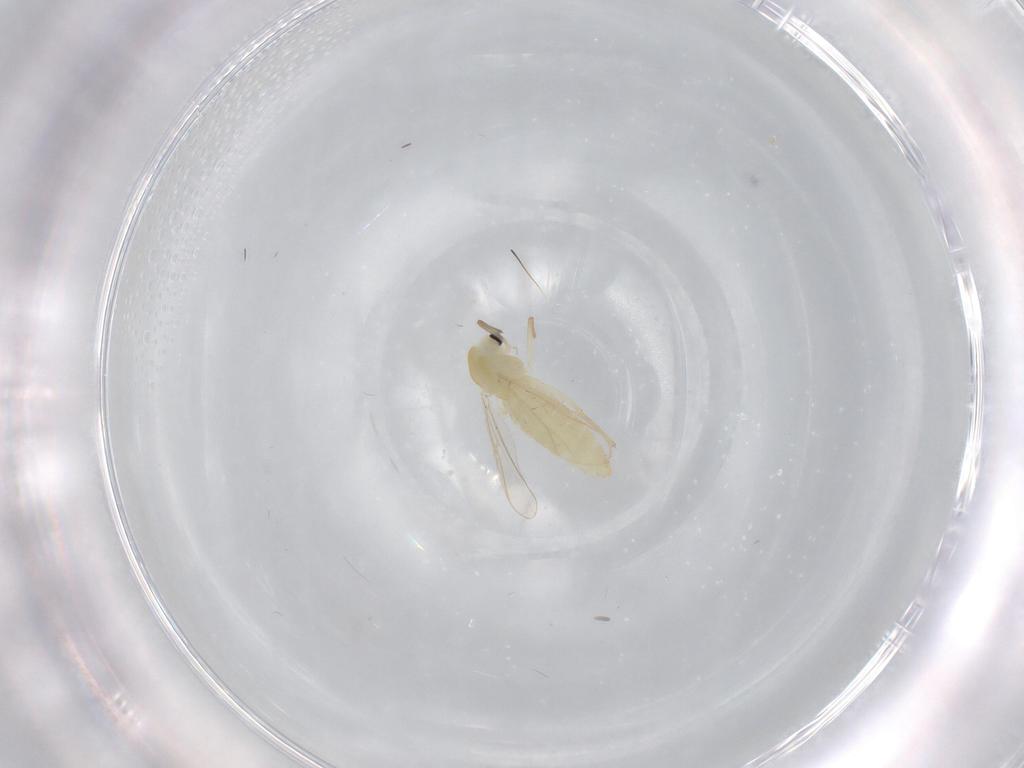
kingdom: Animalia
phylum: Arthropoda
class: Insecta
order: Diptera
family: Chironomidae
